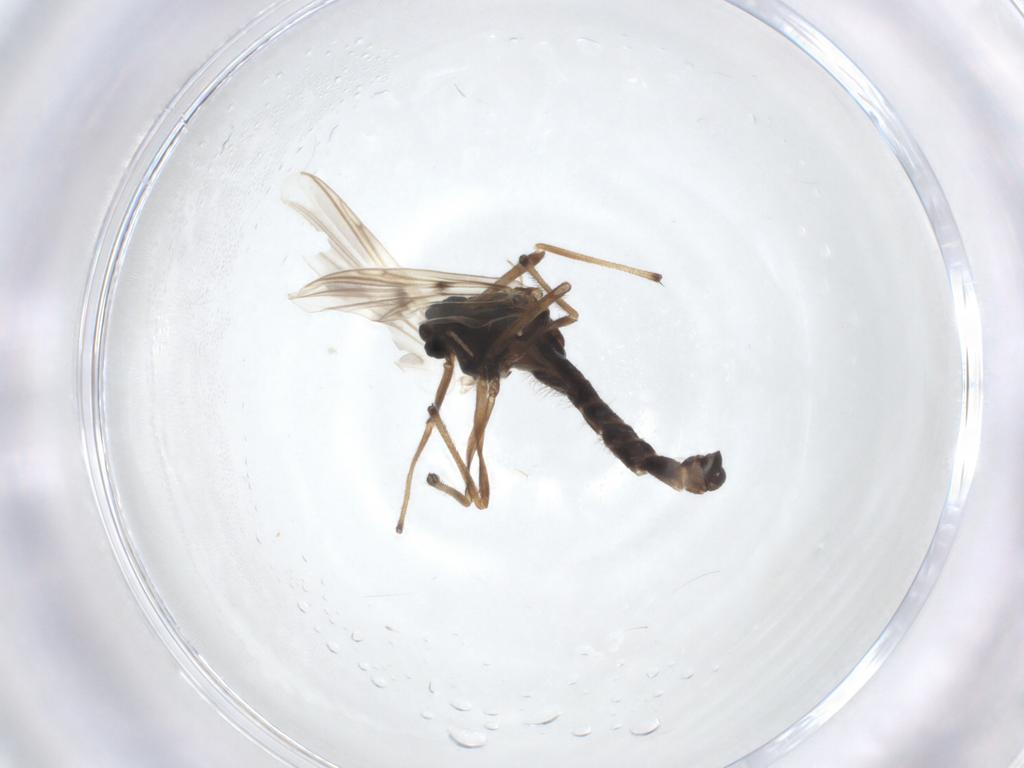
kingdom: Animalia
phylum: Arthropoda
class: Insecta
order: Diptera
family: Chironomidae
